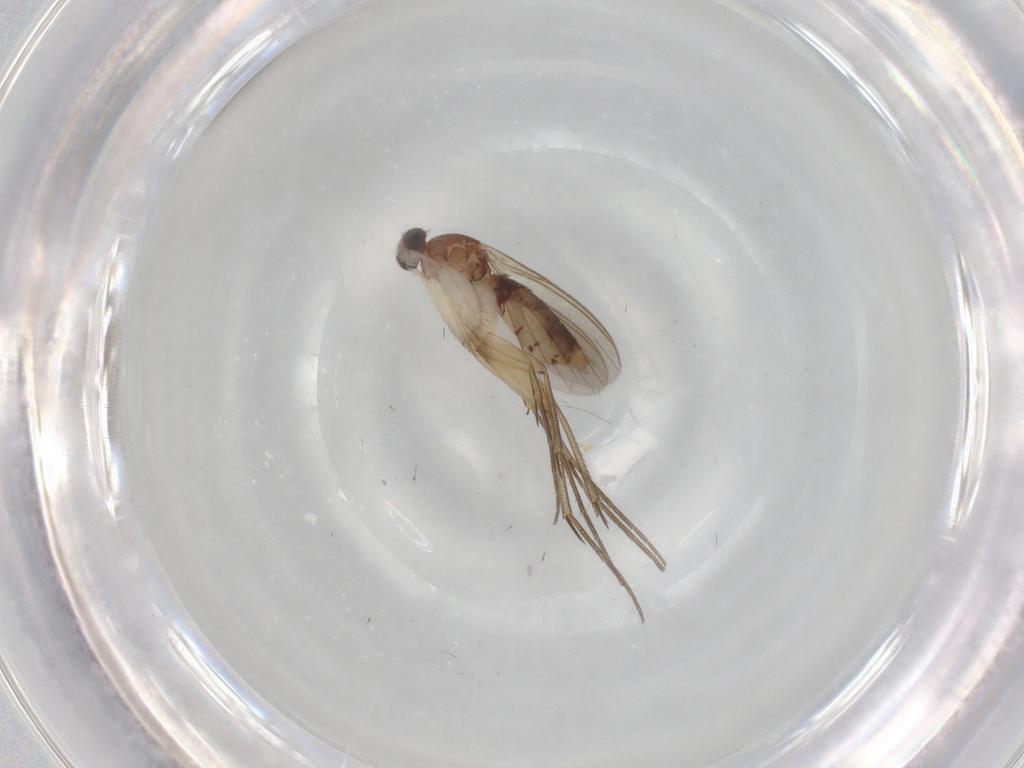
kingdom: Animalia
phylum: Arthropoda
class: Insecta
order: Diptera
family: Mycetophilidae
